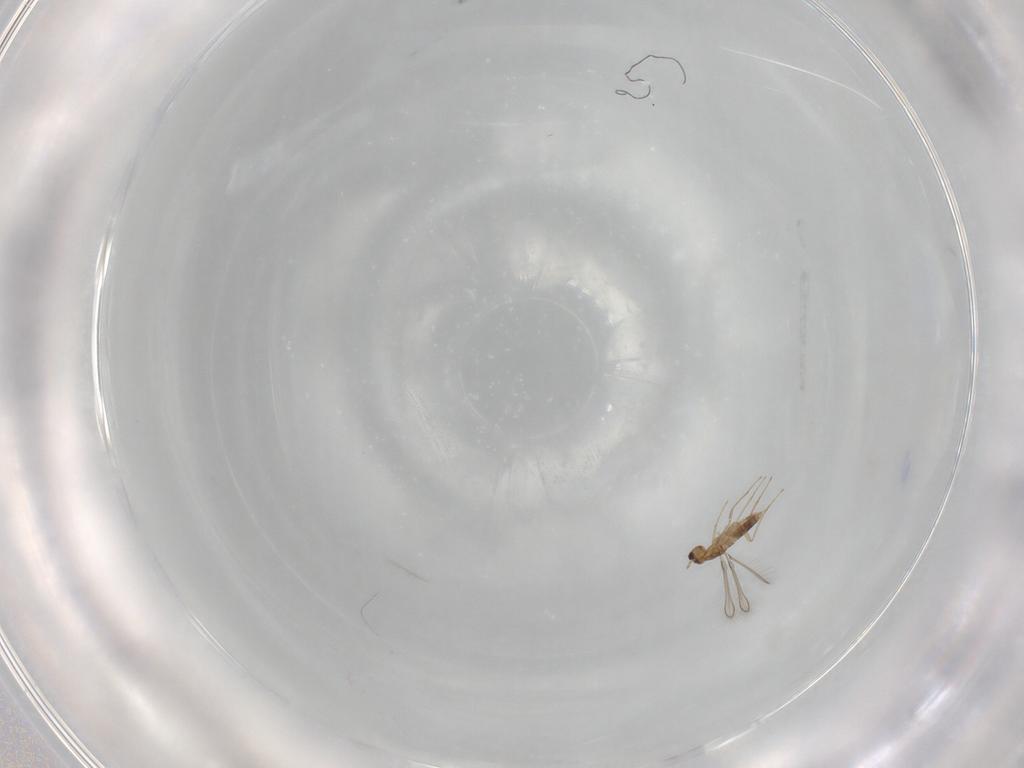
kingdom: Animalia
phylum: Arthropoda
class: Insecta
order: Hymenoptera
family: Mymaridae
